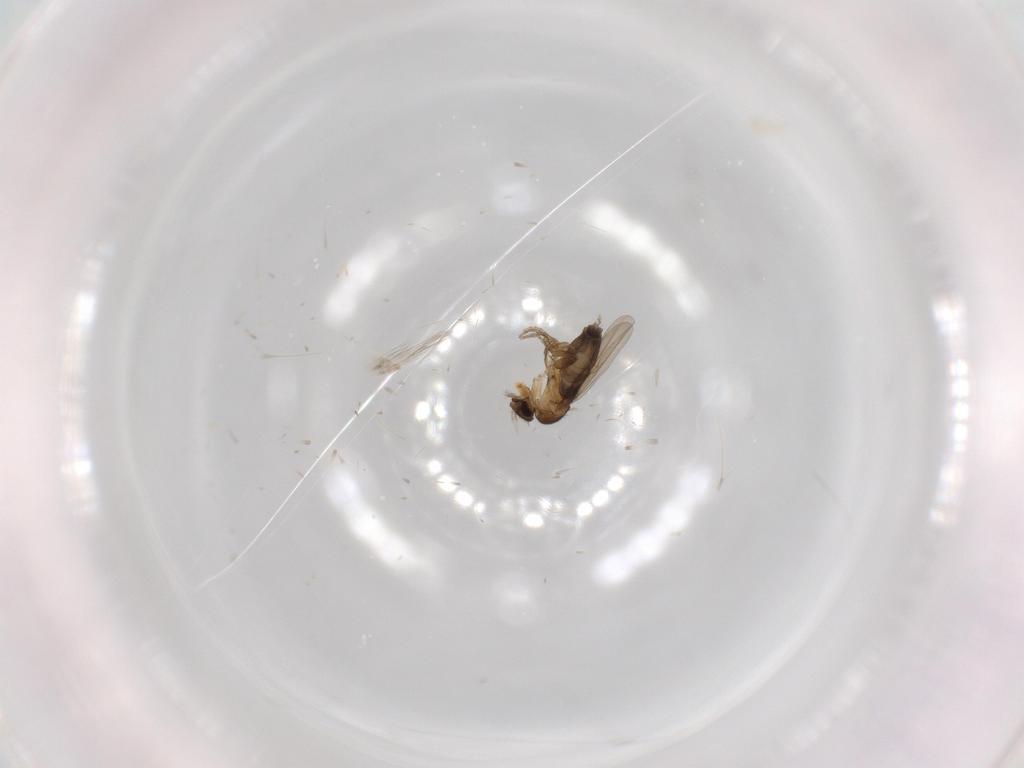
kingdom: Animalia
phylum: Arthropoda
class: Insecta
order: Diptera
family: Phoridae
